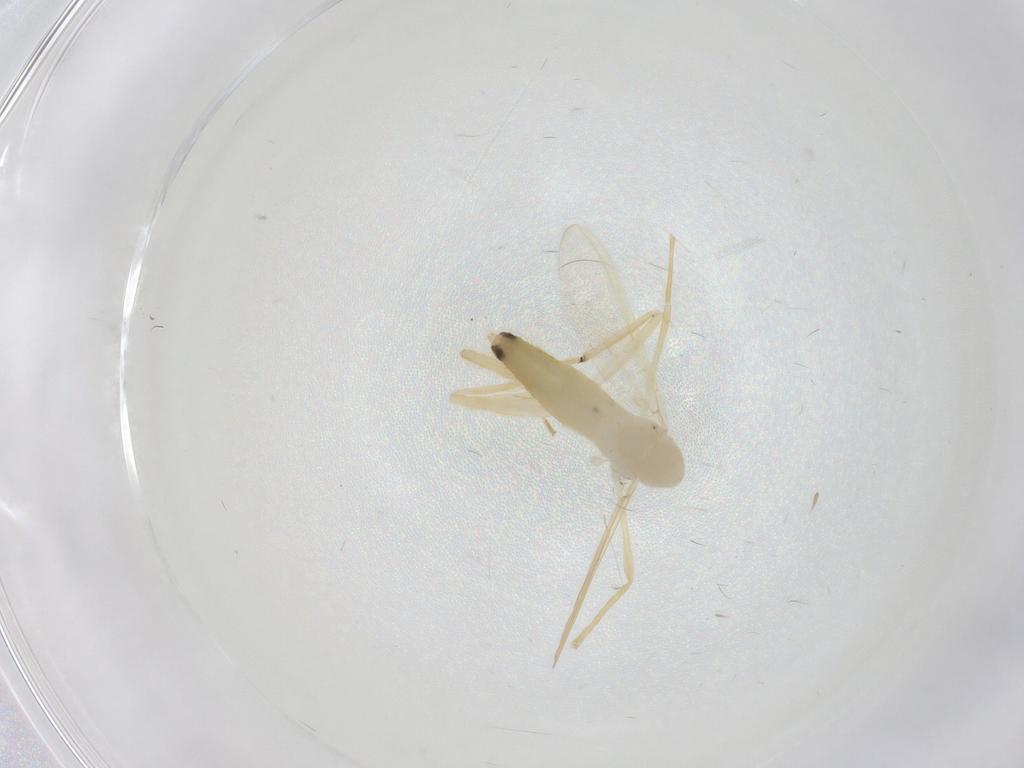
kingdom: Animalia
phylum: Arthropoda
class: Insecta
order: Diptera
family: Chironomidae
